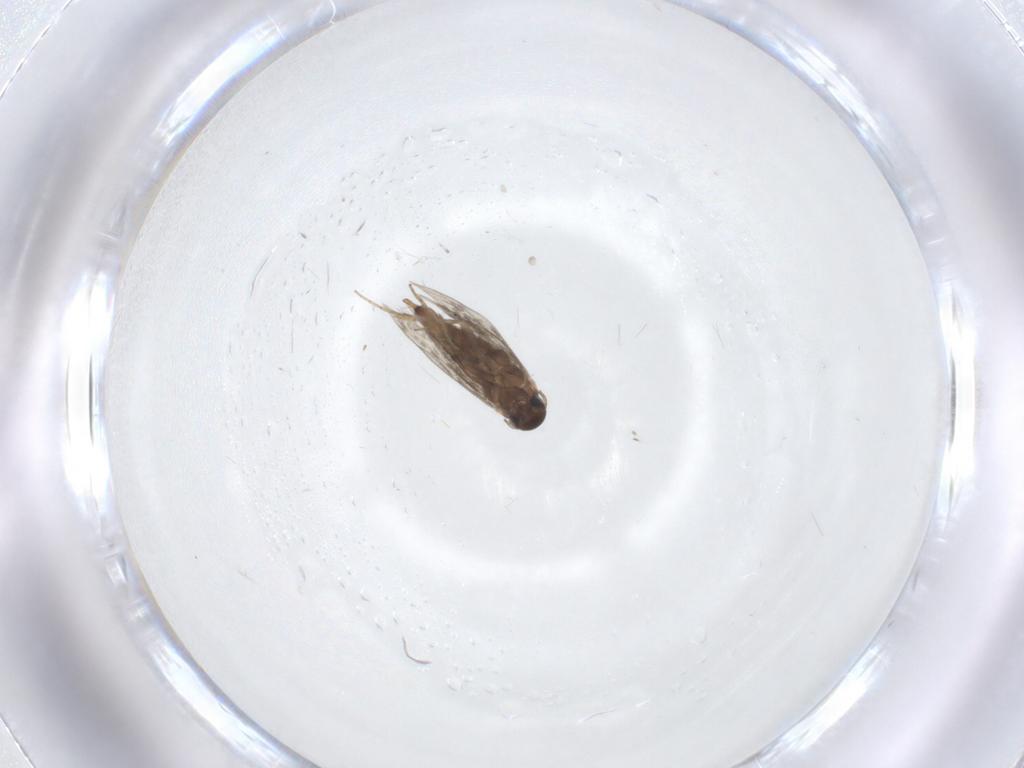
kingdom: Animalia
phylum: Arthropoda
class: Insecta
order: Lepidoptera
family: Heliozelidae
